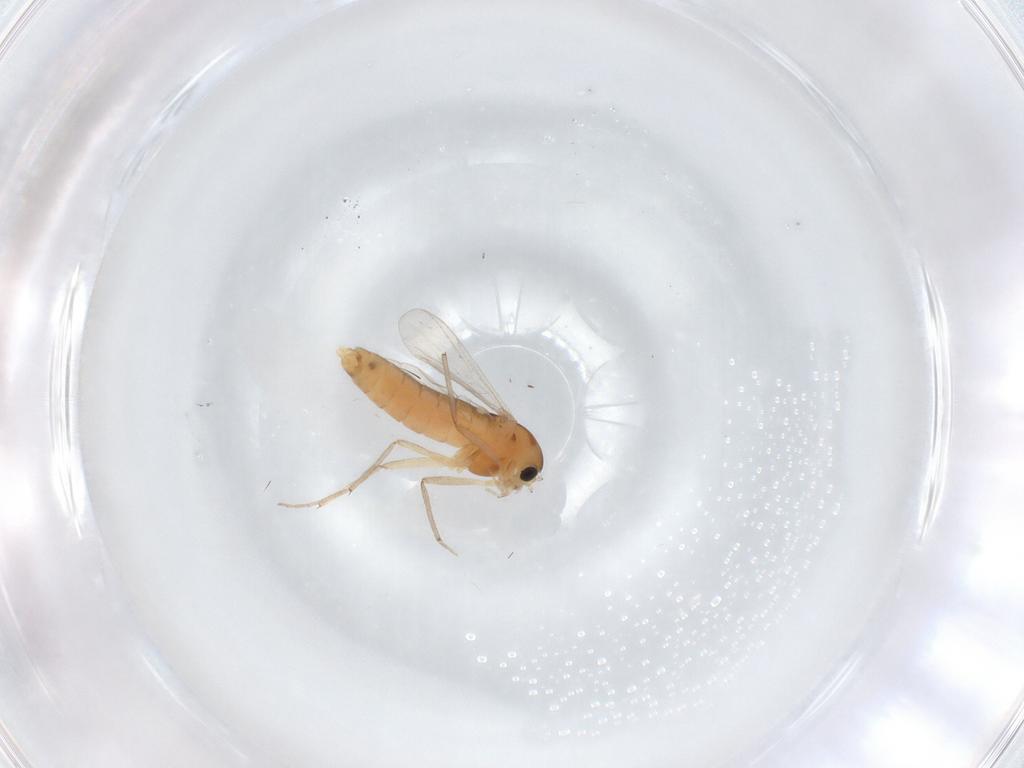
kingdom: Animalia
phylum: Arthropoda
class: Insecta
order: Diptera
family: Chironomidae
